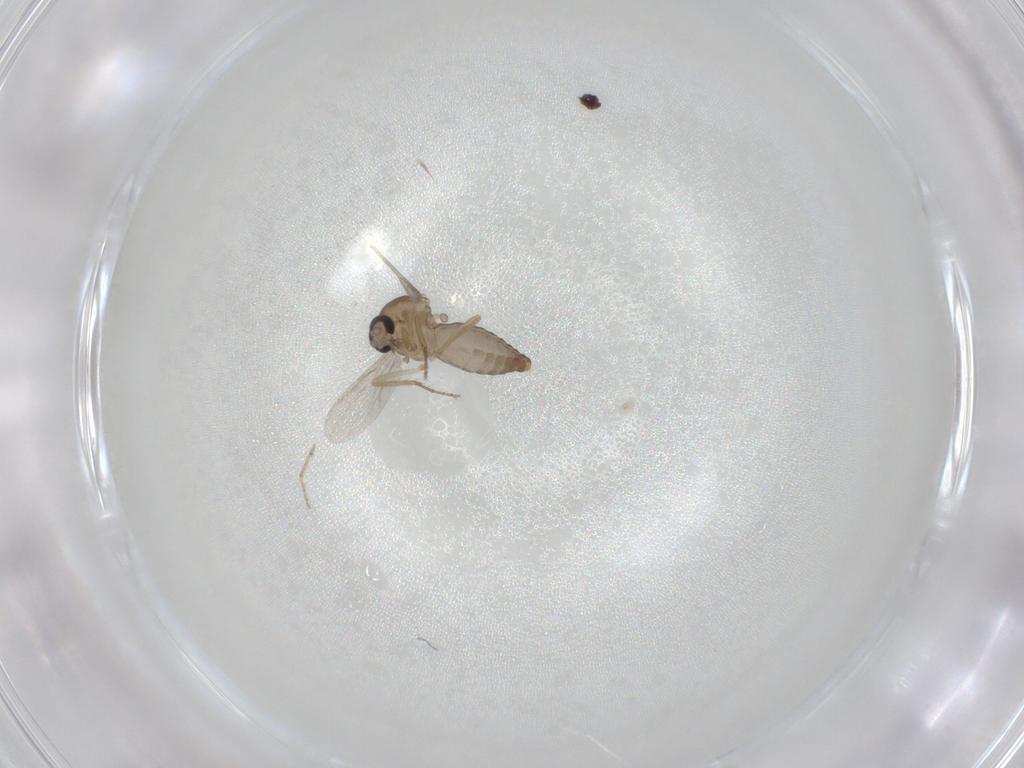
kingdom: Animalia
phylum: Arthropoda
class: Insecta
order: Diptera
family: Ceratopogonidae
